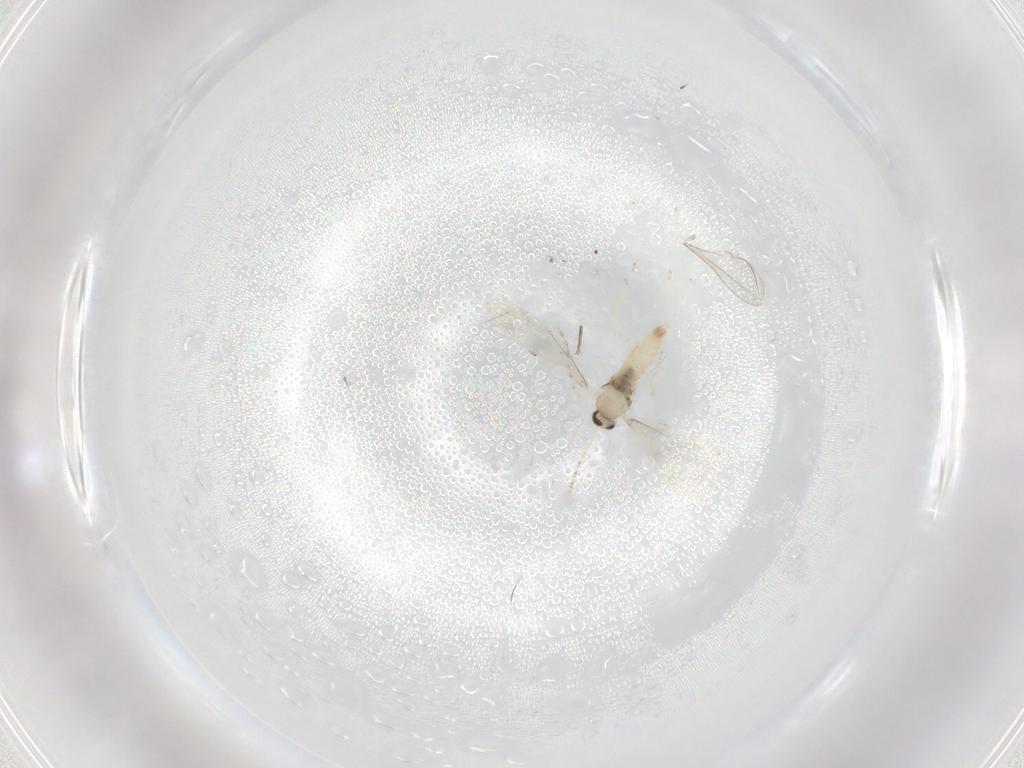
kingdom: Animalia
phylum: Arthropoda
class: Insecta
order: Diptera
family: Cecidomyiidae
